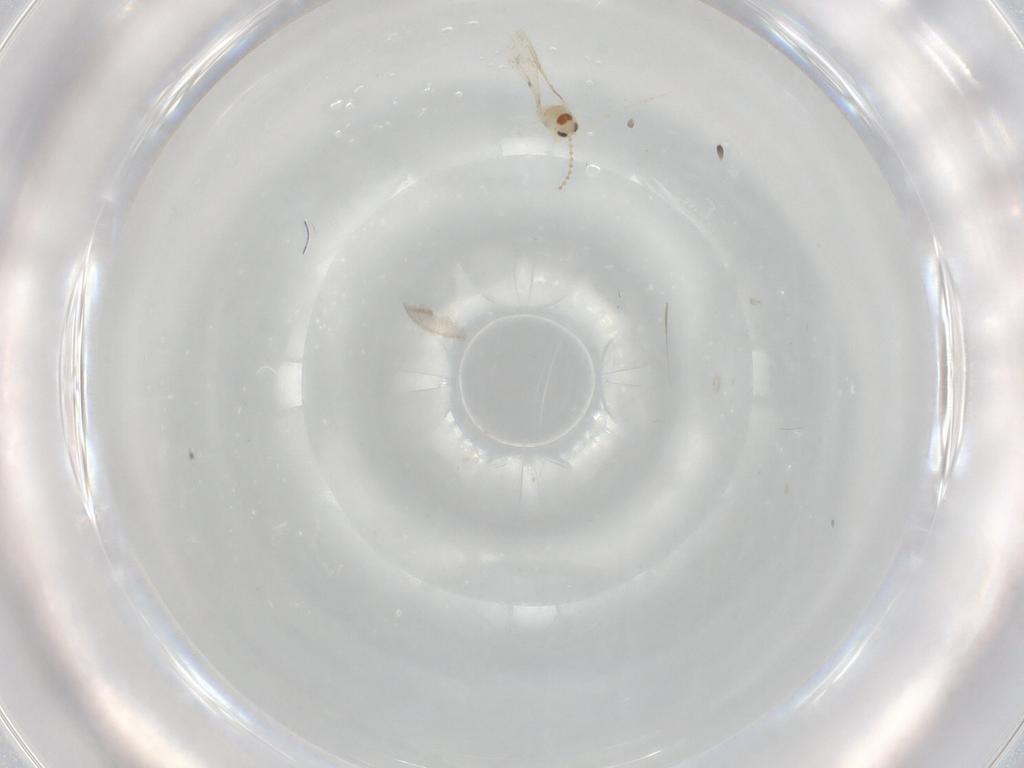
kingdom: Animalia
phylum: Arthropoda
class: Insecta
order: Diptera
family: Cecidomyiidae
